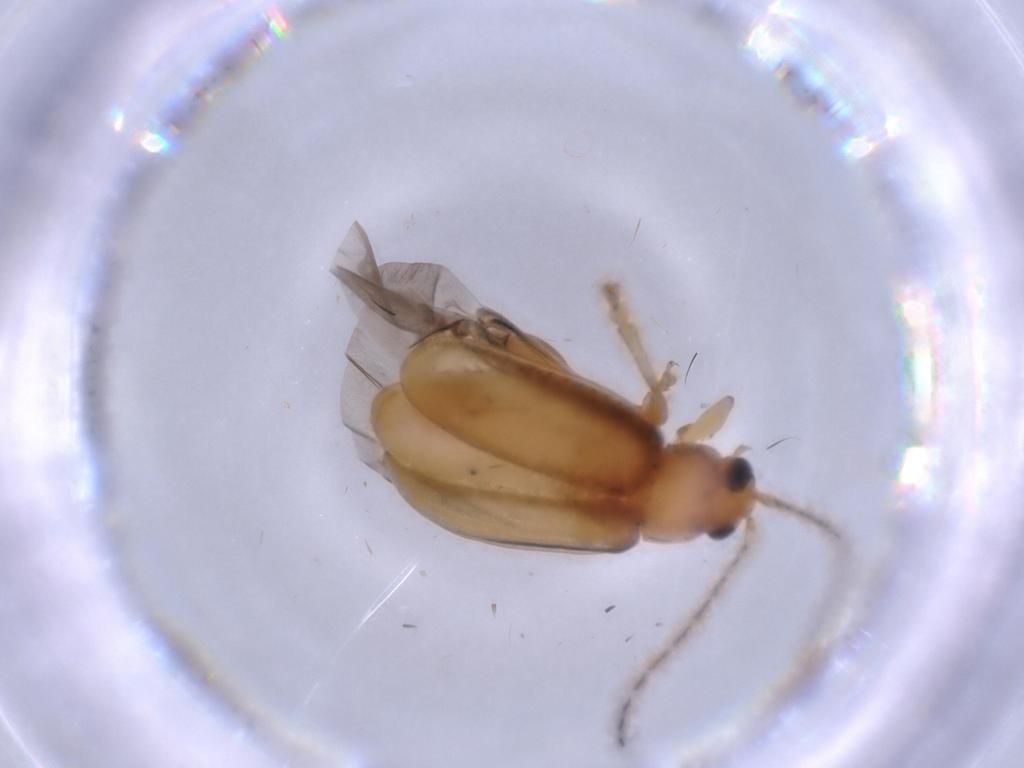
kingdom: Animalia
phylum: Arthropoda
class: Insecta
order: Coleoptera
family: Chrysomelidae
